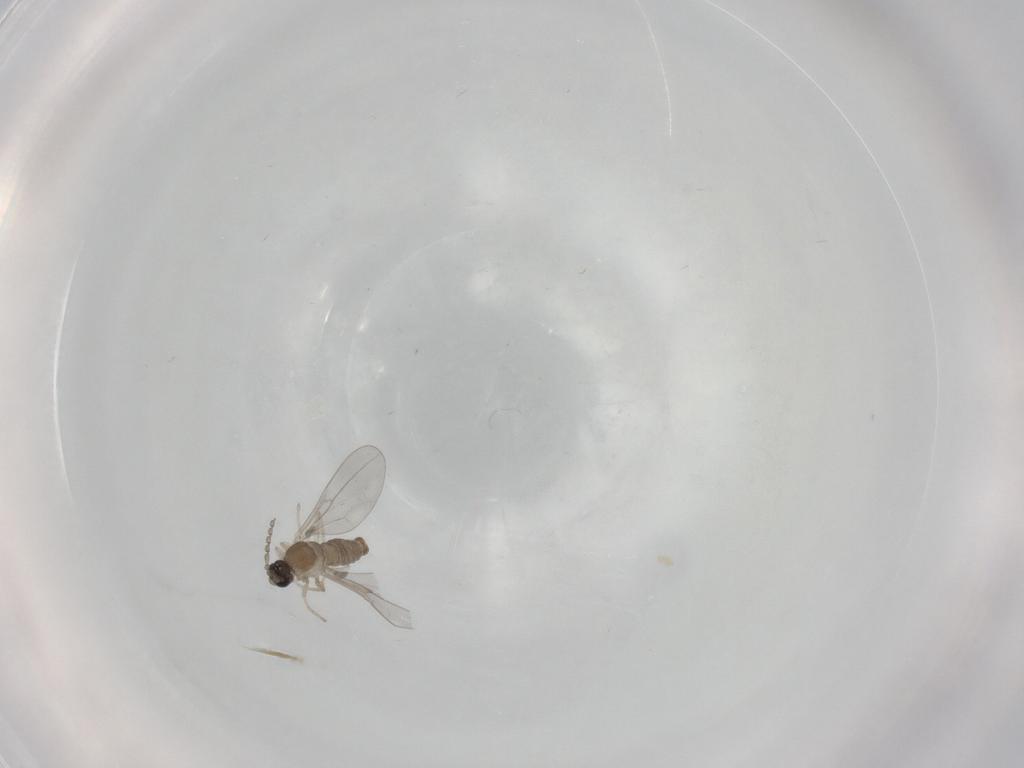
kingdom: Animalia
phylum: Arthropoda
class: Insecta
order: Diptera
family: Cecidomyiidae
